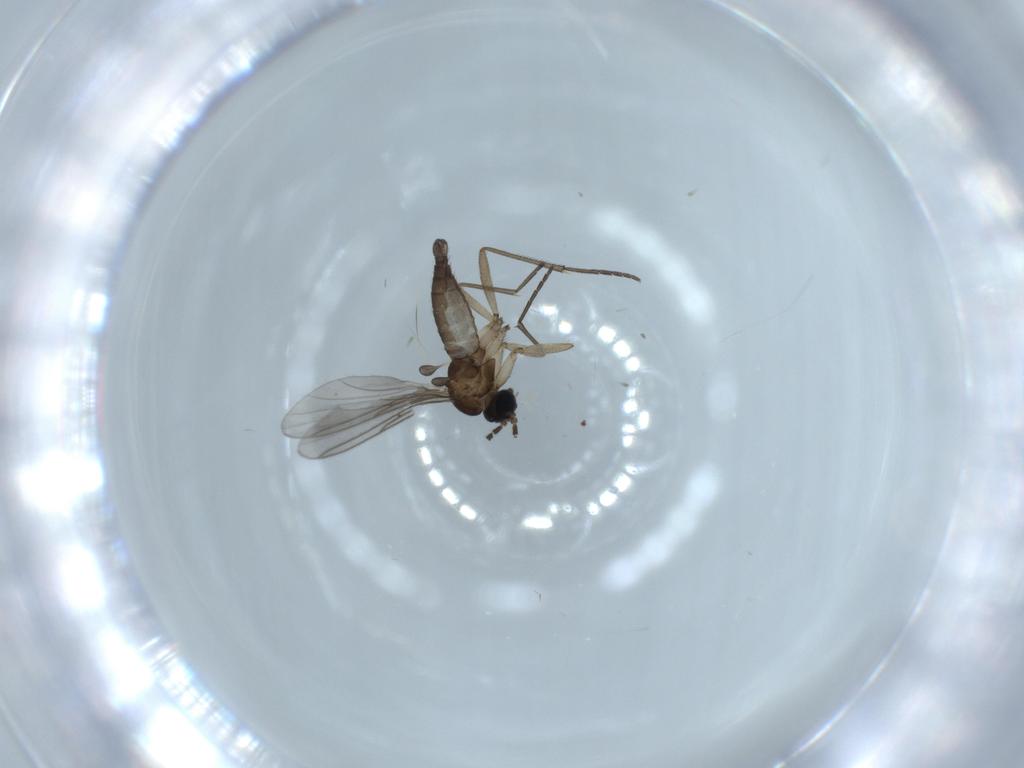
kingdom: Animalia
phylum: Arthropoda
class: Insecta
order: Diptera
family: Sciaridae
